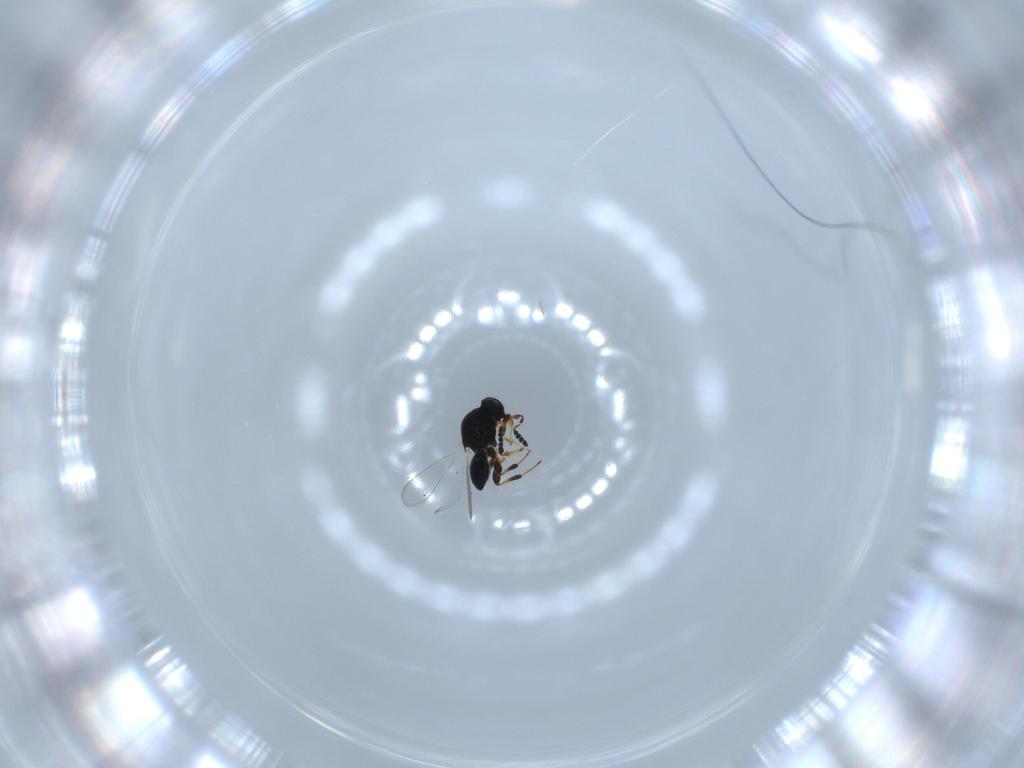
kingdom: Animalia
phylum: Arthropoda
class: Insecta
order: Hymenoptera
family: Platygastridae
